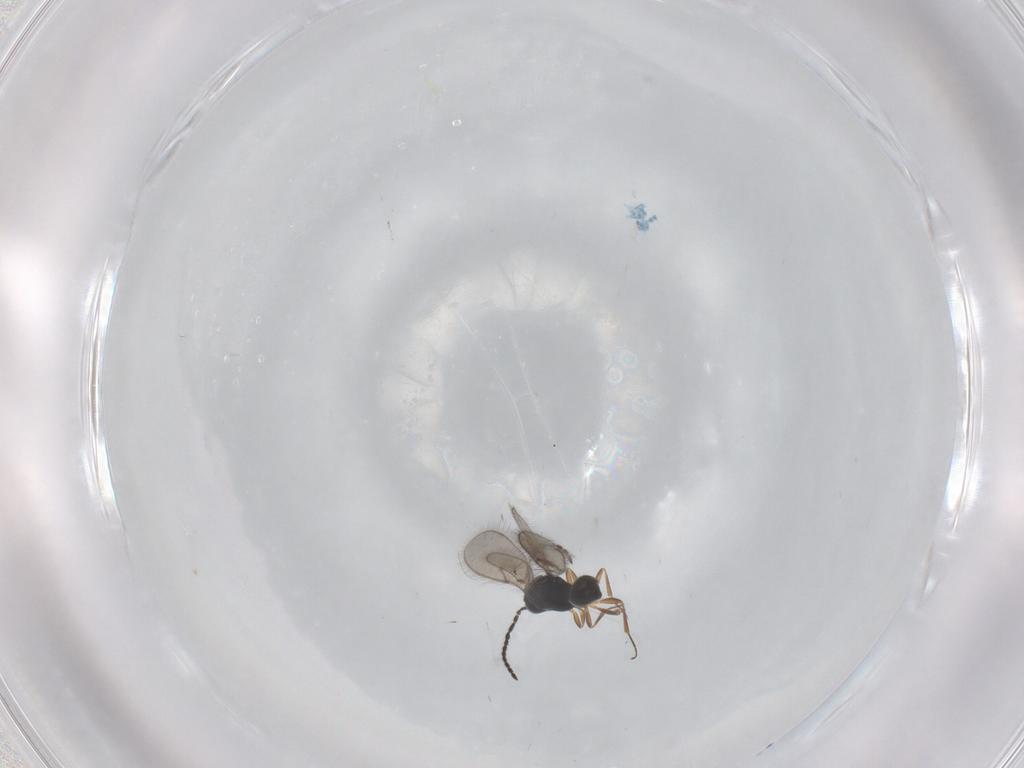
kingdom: Animalia
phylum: Arthropoda
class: Insecta
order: Hymenoptera
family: Scelionidae
